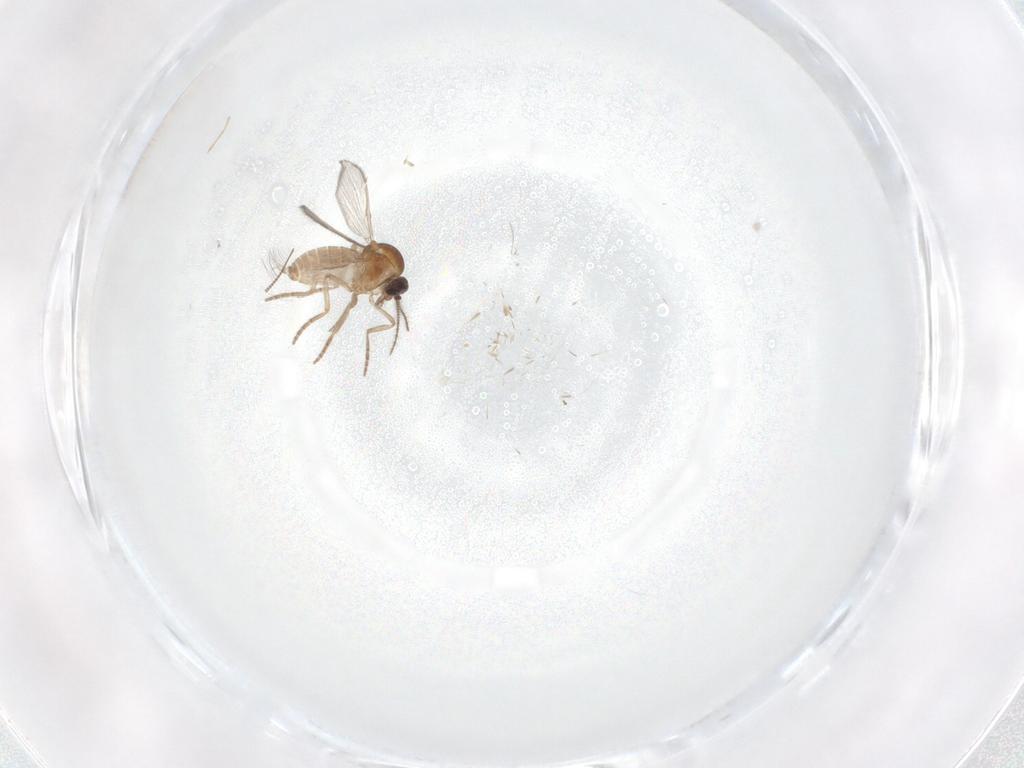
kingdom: Animalia
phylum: Arthropoda
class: Insecta
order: Diptera
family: Ceratopogonidae
